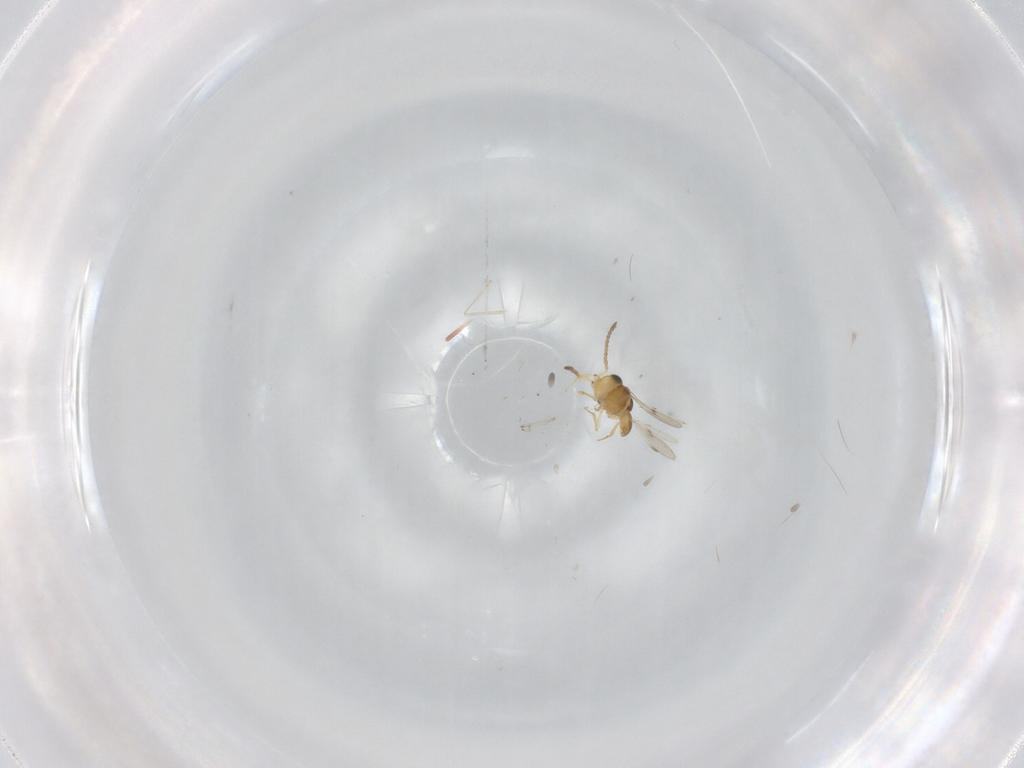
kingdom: Animalia
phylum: Arthropoda
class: Insecta
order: Hymenoptera
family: Scelionidae
